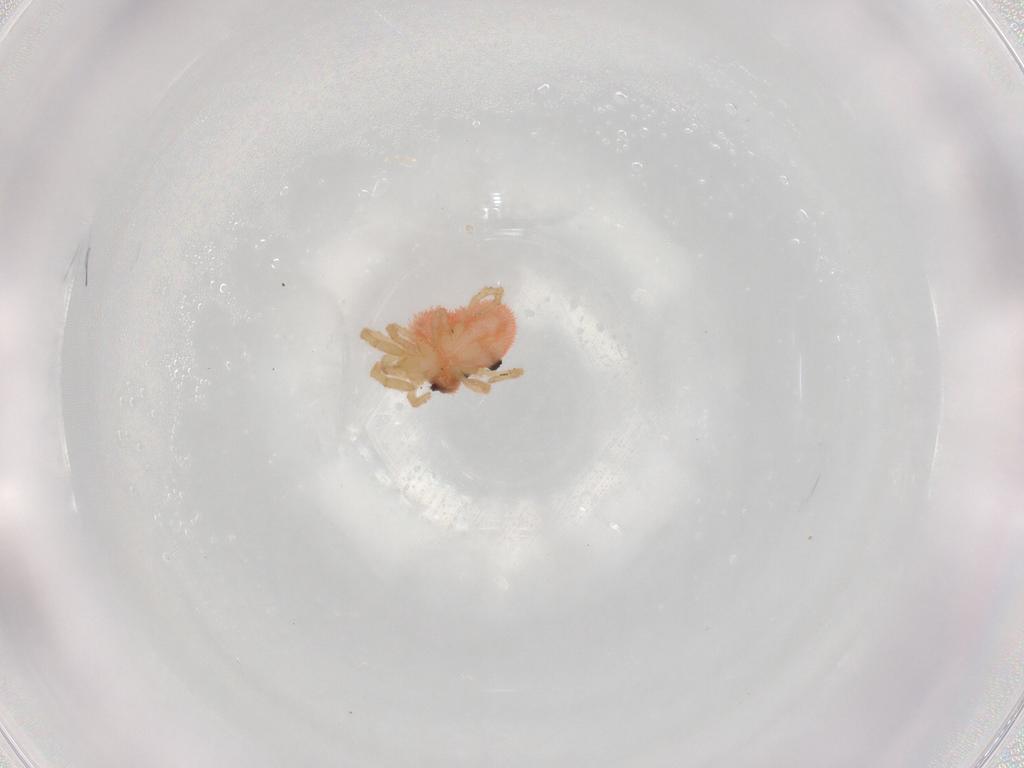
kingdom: Animalia
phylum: Arthropoda
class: Arachnida
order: Trombidiformes
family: Trombidiidae
